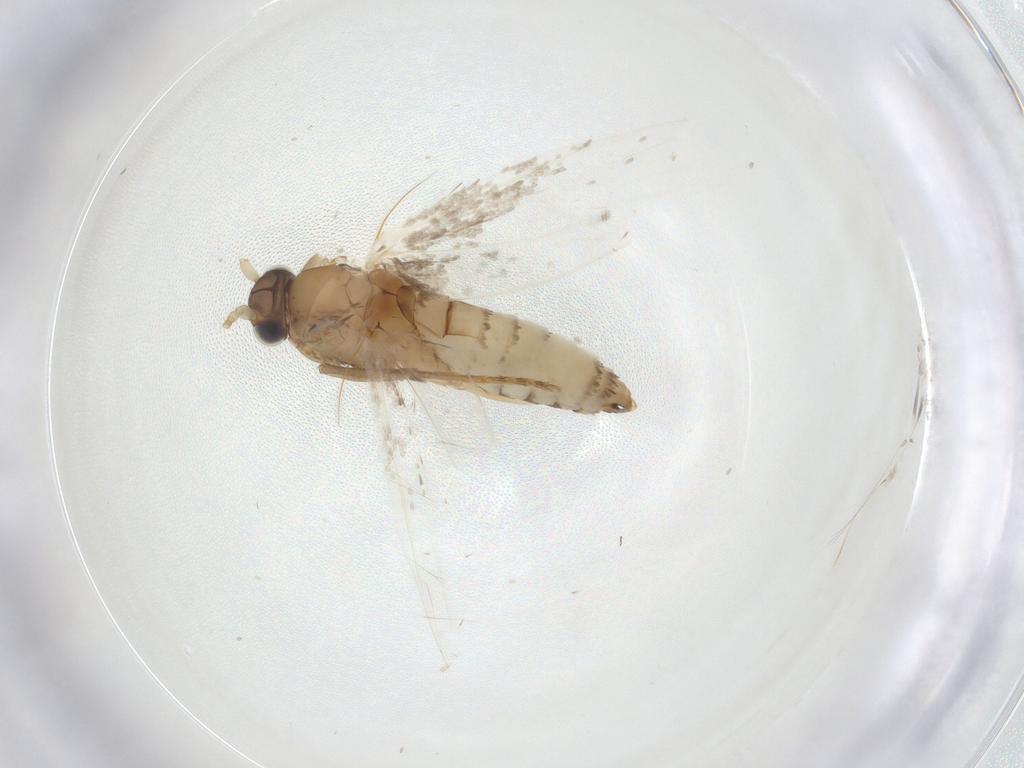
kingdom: Animalia
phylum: Arthropoda
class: Insecta
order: Lepidoptera
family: Tineidae
